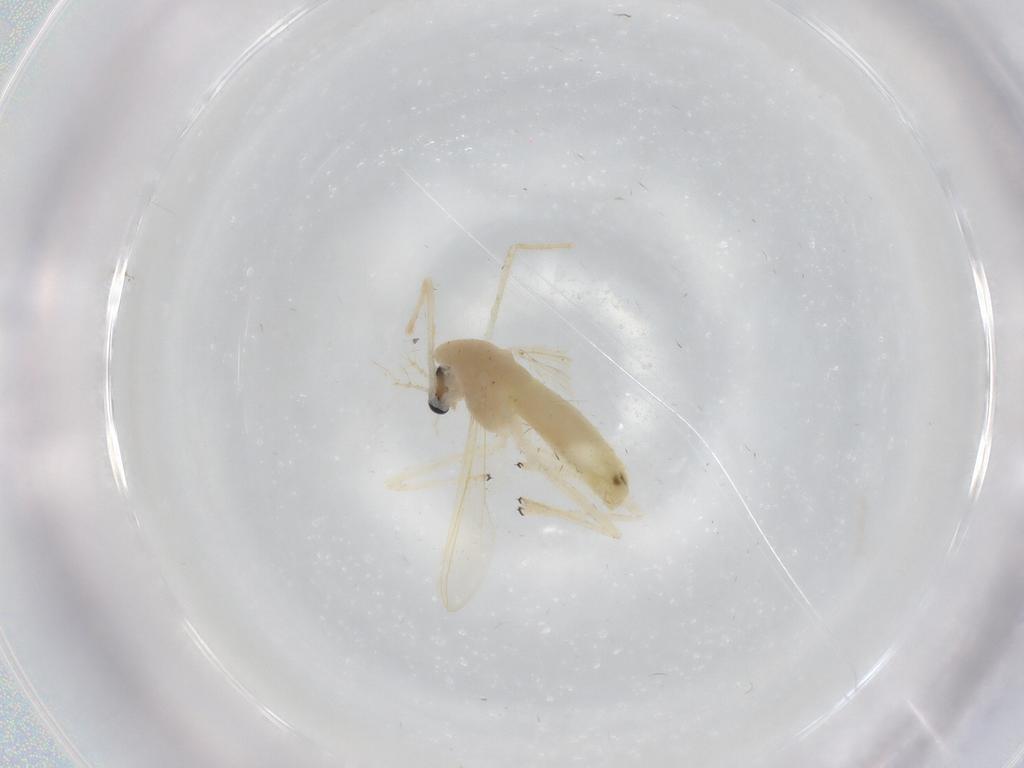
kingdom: Animalia
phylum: Arthropoda
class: Insecta
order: Diptera
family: Chironomidae
